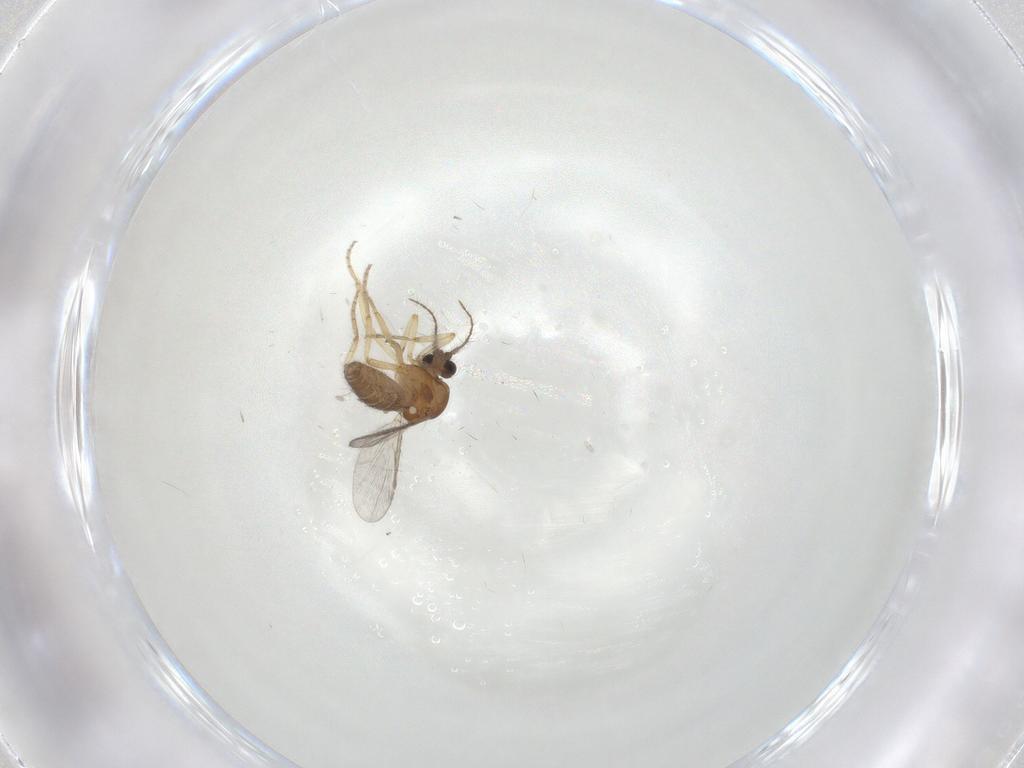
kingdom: Animalia
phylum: Arthropoda
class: Insecta
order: Diptera
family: Ceratopogonidae
